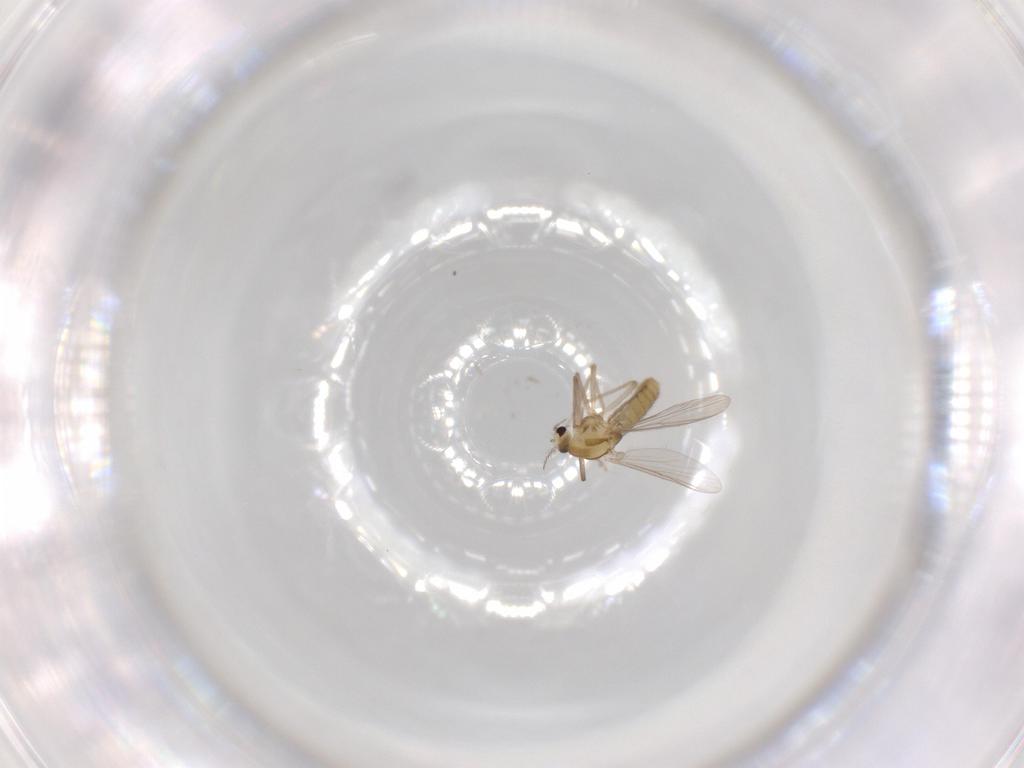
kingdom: Animalia
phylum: Arthropoda
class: Insecta
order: Diptera
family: Chironomidae
